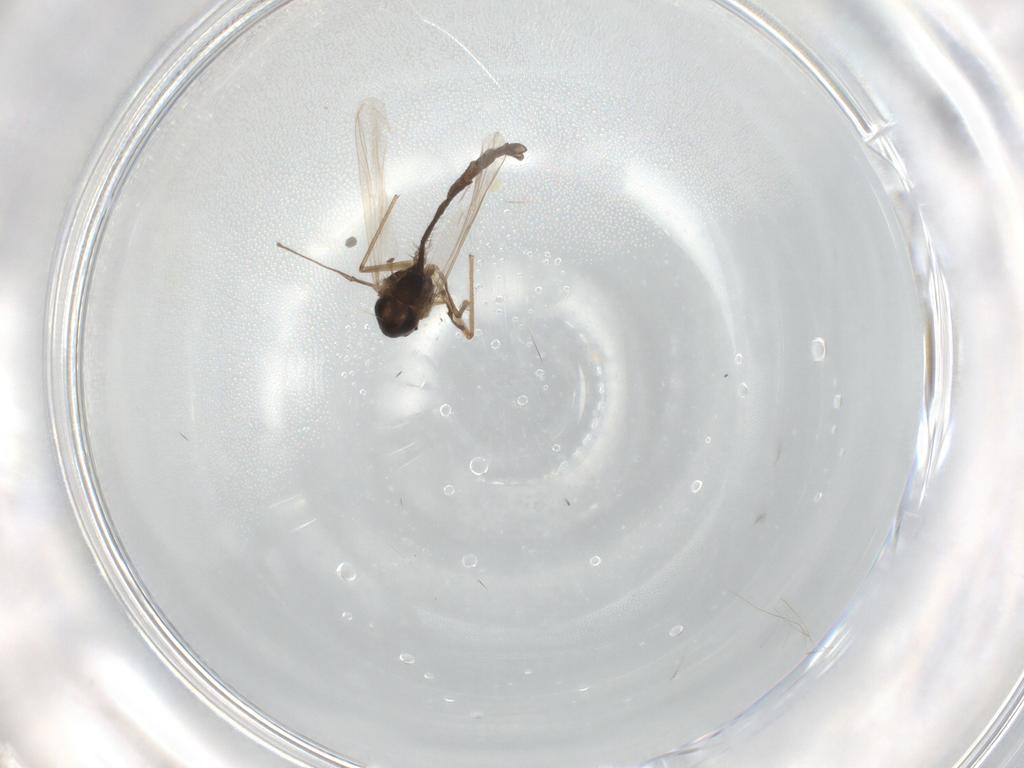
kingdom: Animalia
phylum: Arthropoda
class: Insecta
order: Diptera
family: Chironomidae
